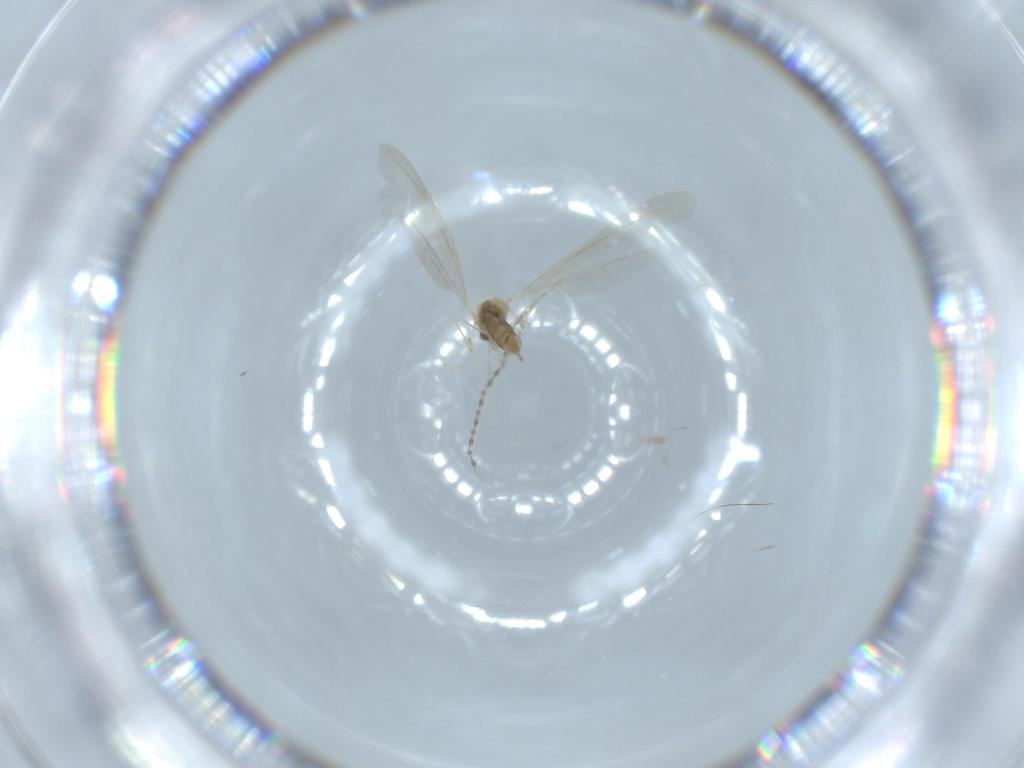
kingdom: Animalia
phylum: Arthropoda
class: Insecta
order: Diptera
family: Cecidomyiidae
